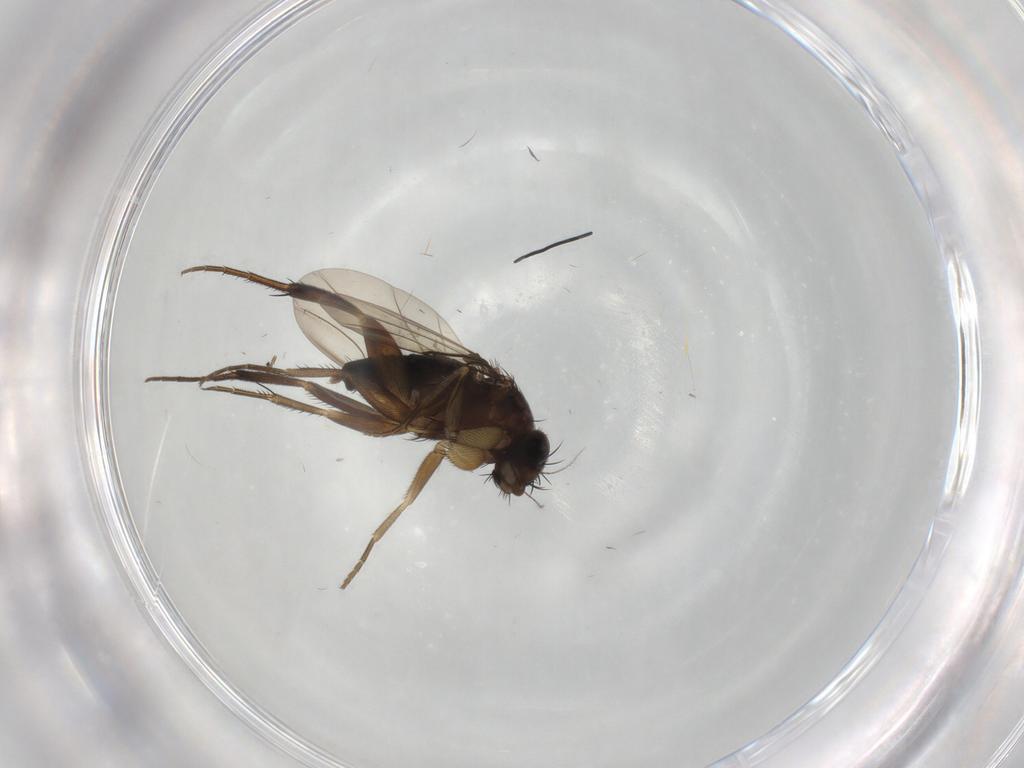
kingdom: Animalia
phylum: Arthropoda
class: Insecta
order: Diptera
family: Phoridae
